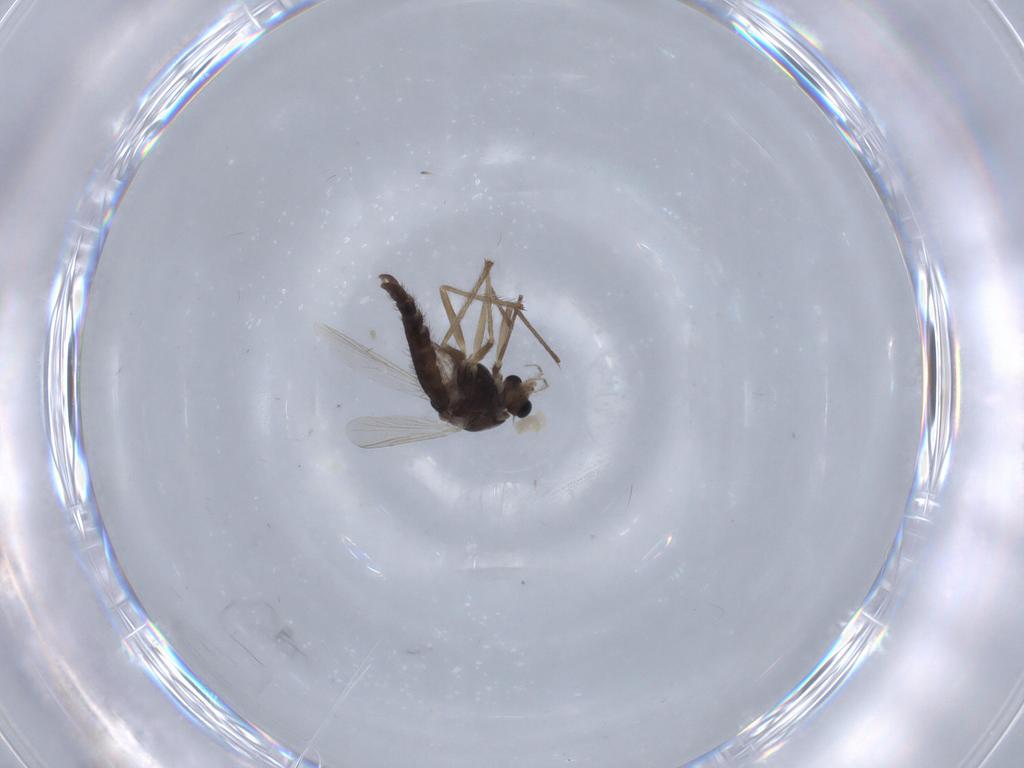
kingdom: Animalia
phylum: Arthropoda
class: Insecta
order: Diptera
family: Chironomidae
